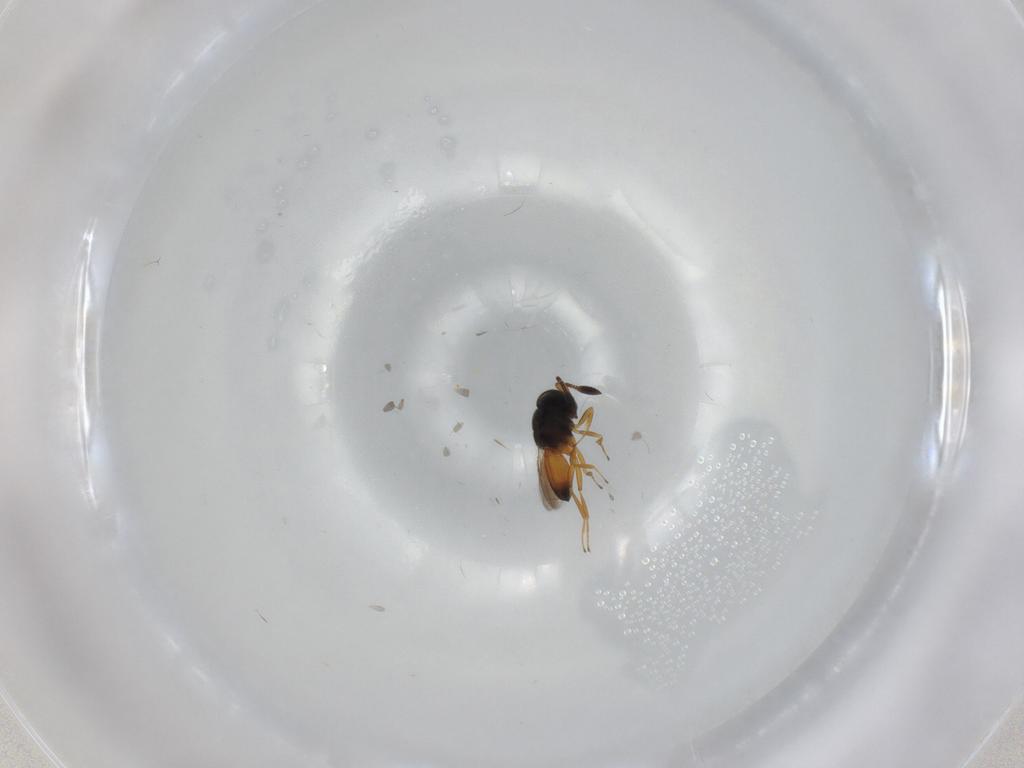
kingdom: Animalia
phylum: Arthropoda
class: Insecta
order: Hymenoptera
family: Scelionidae
